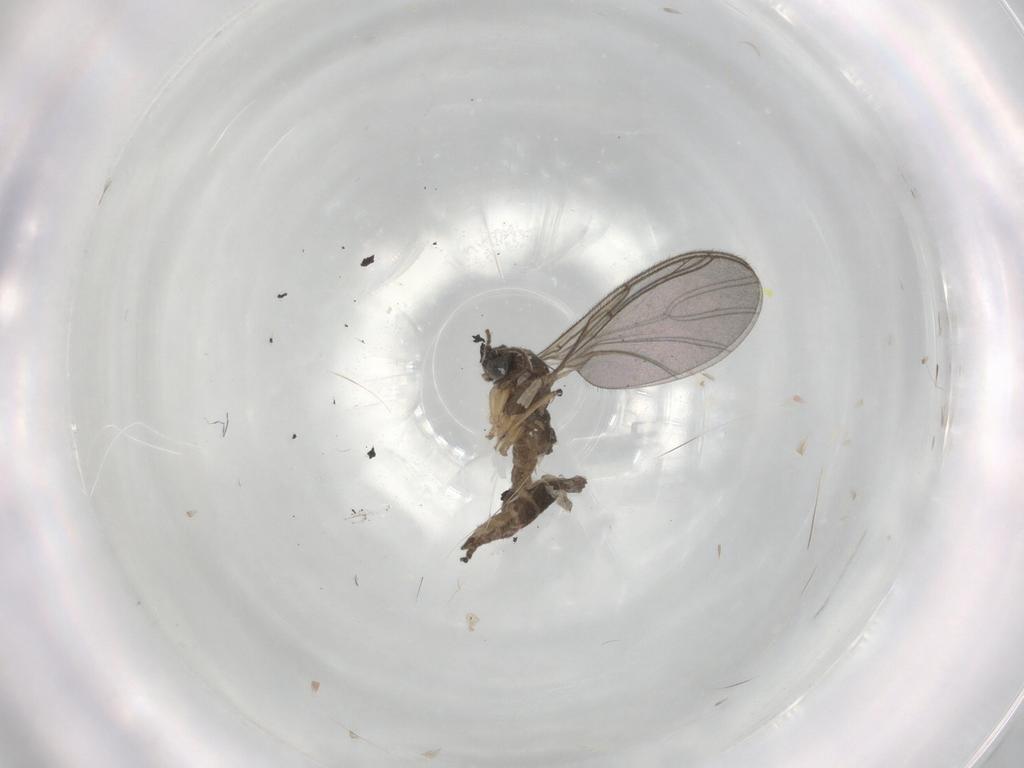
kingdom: Animalia
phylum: Arthropoda
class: Insecta
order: Diptera
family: Sciaridae
